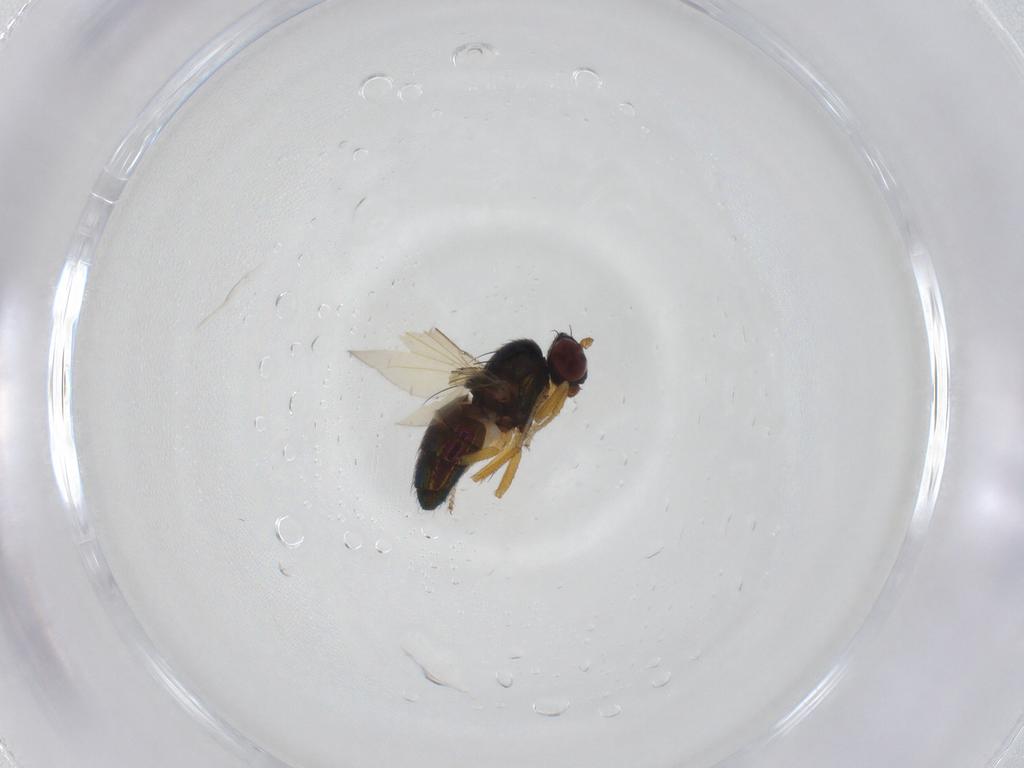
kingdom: Animalia
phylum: Arthropoda
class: Insecta
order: Diptera
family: Ephydridae
